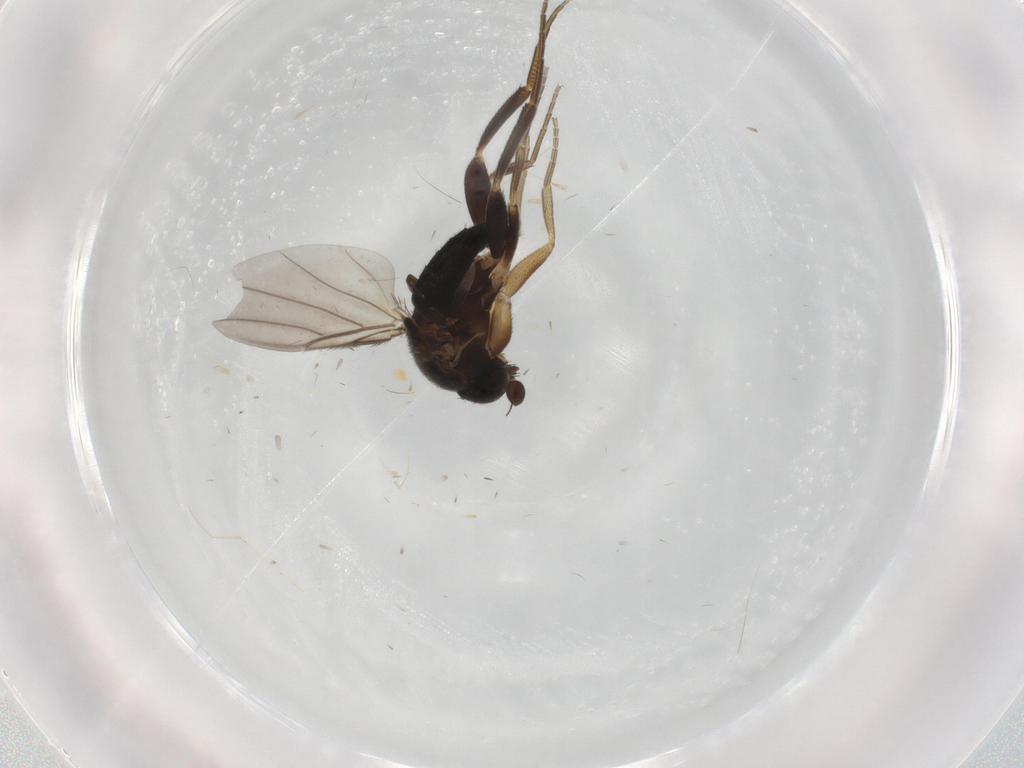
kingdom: Animalia
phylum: Arthropoda
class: Insecta
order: Diptera
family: Phoridae
